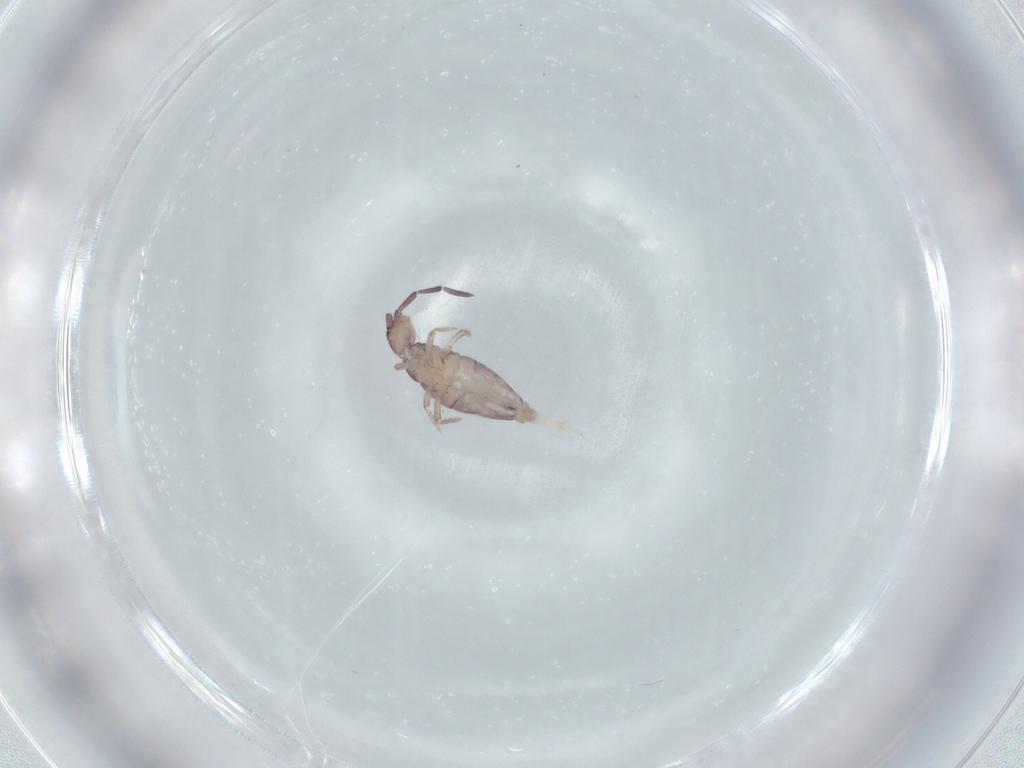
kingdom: Animalia
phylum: Arthropoda
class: Collembola
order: Entomobryomorpha
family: Entomobryidae
